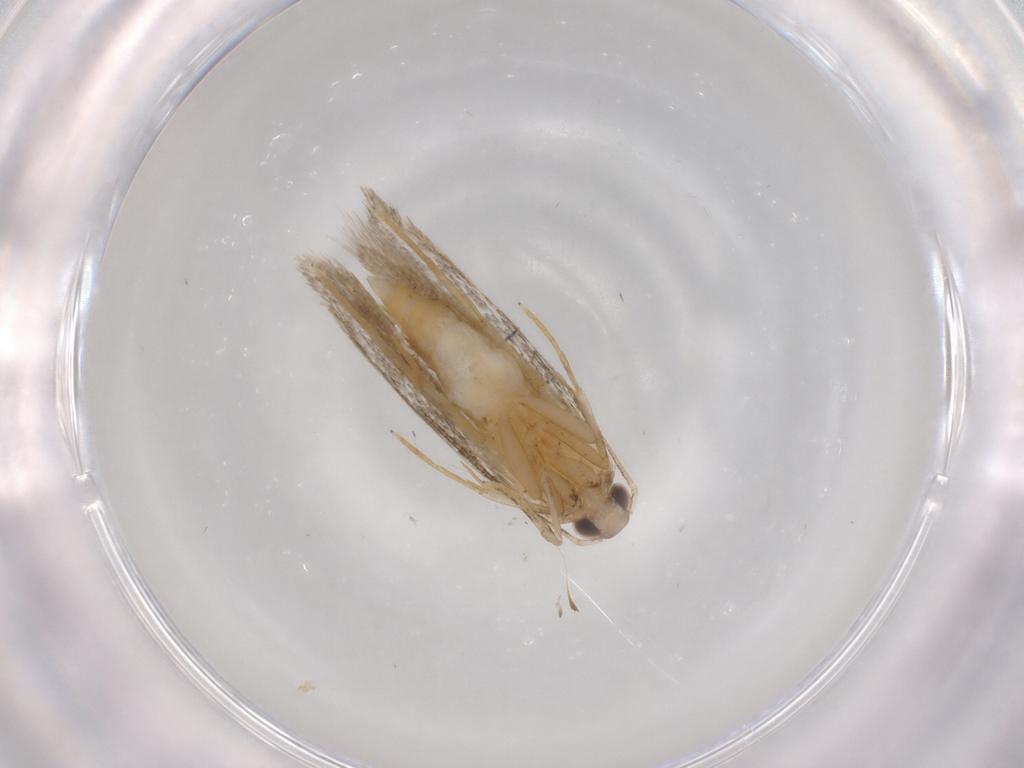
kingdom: Animalia
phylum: Arthropoda
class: Insecta
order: Lepidoptera
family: Autostichidae
